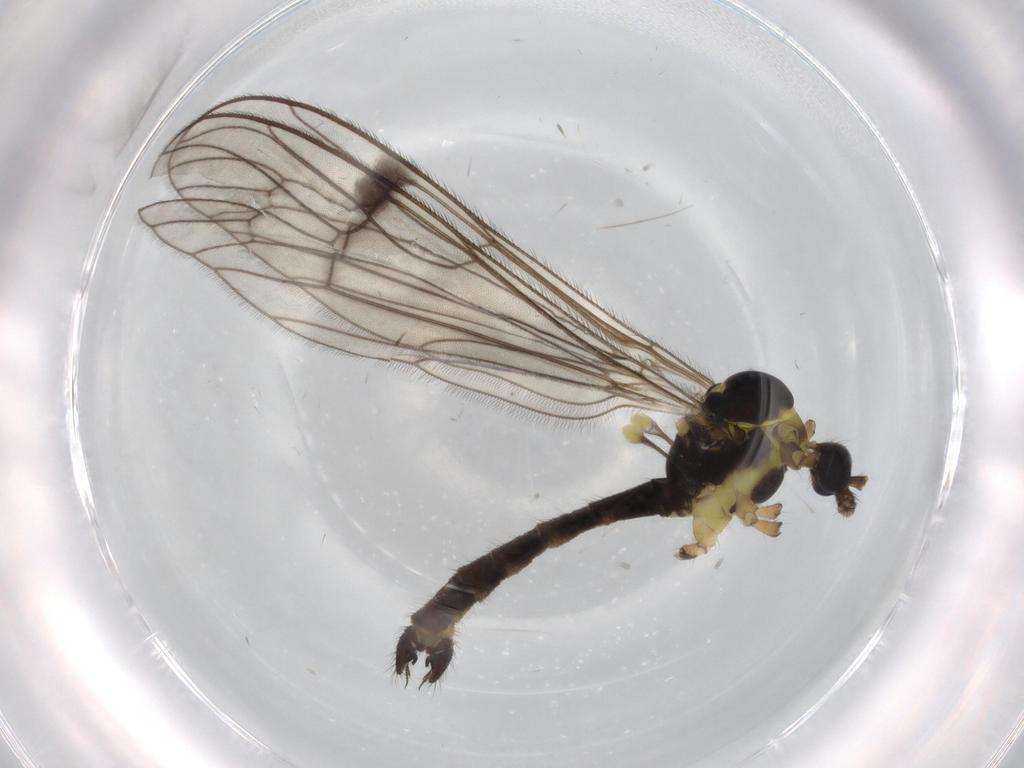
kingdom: Animalia
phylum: Arthropoda
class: Insecta
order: Diptera
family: Limoniidae
